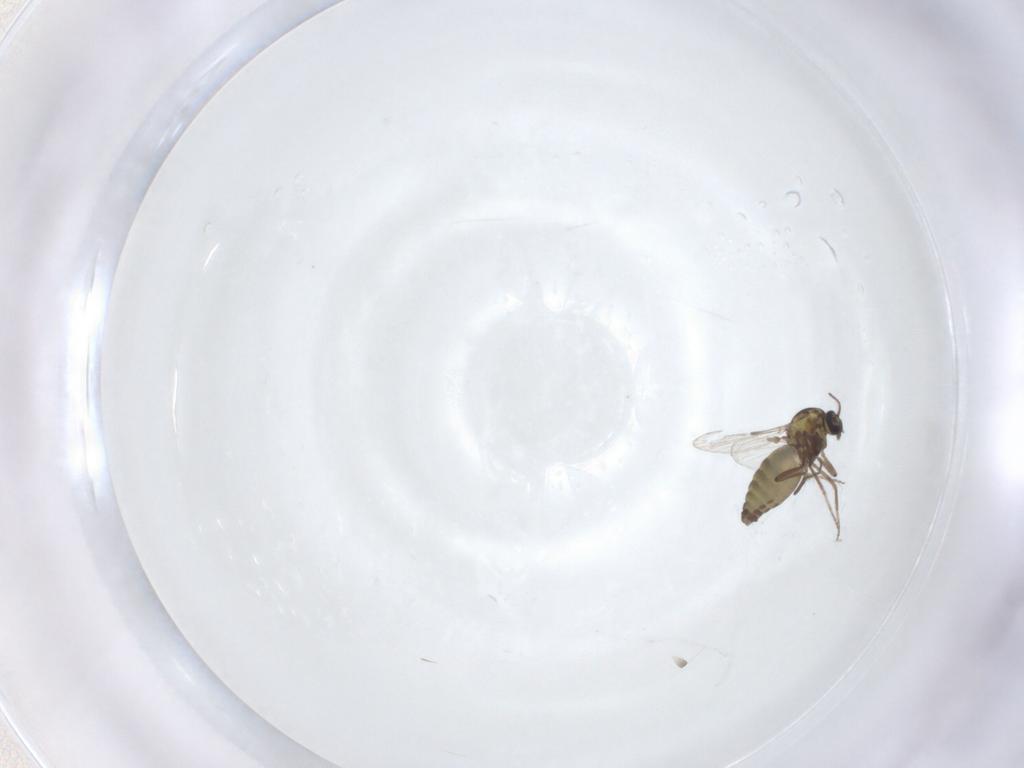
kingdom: Animalia
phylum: Arthropoda
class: Insecta
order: Diptera
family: Ceratopogonidae
